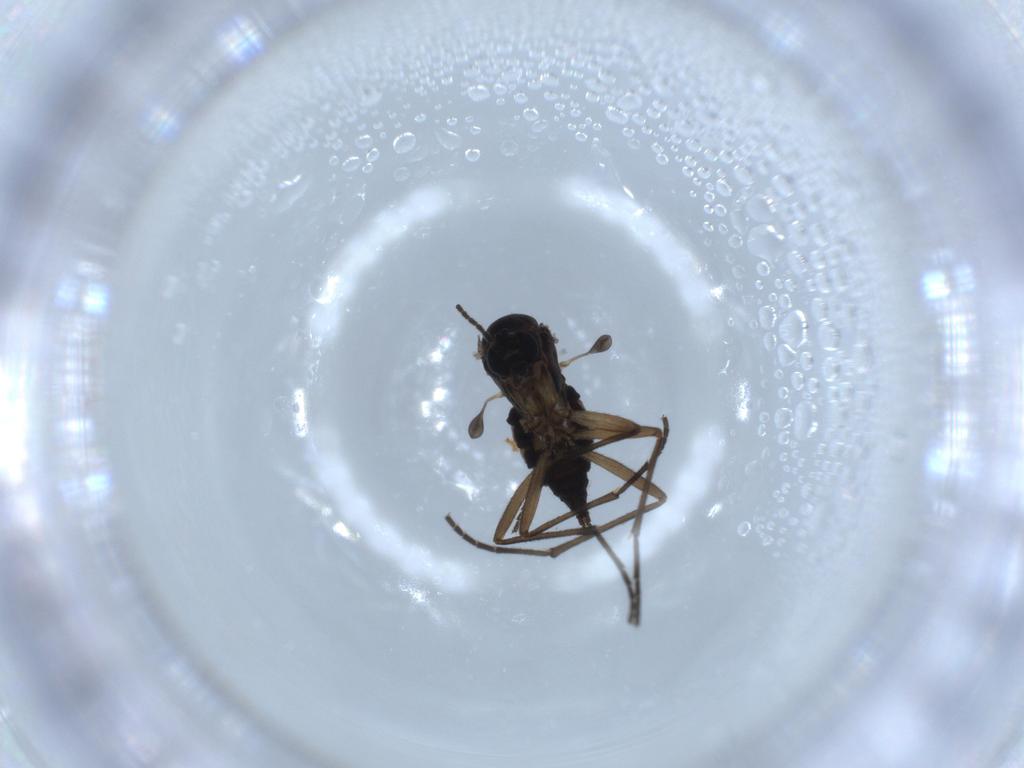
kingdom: Animalia
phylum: Arthropoda
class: Insecta
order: Diptera
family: Sciaridae
